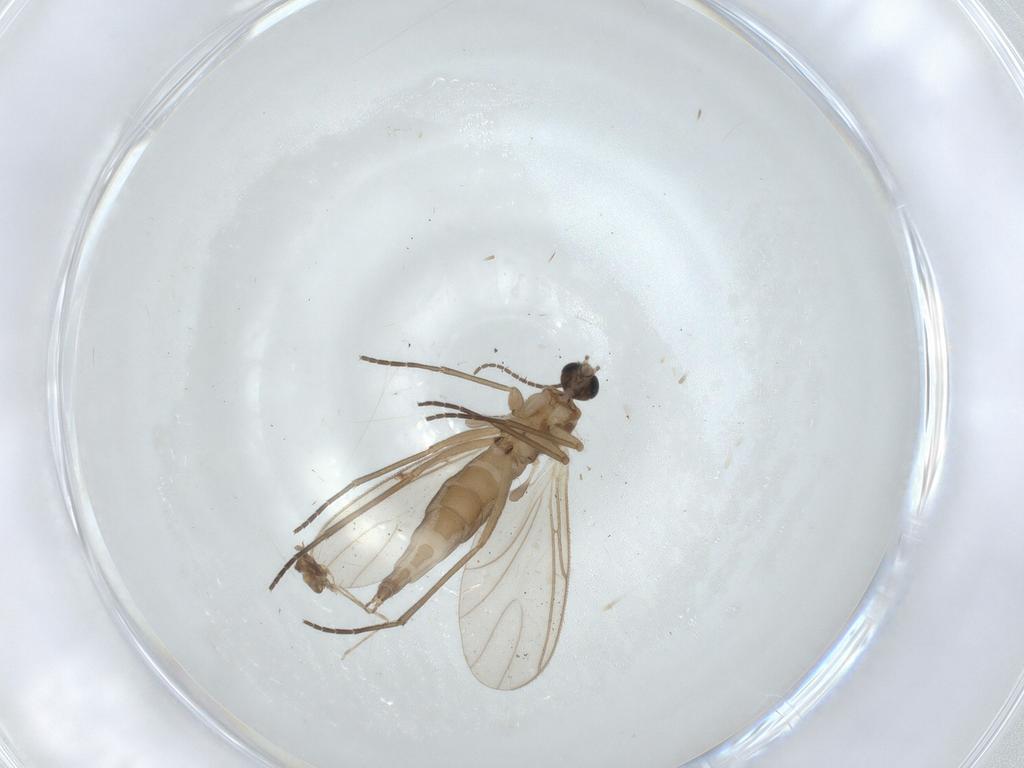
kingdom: Animalia
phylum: Arthropoda
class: Insecta
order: Diptera
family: Sciaridae
